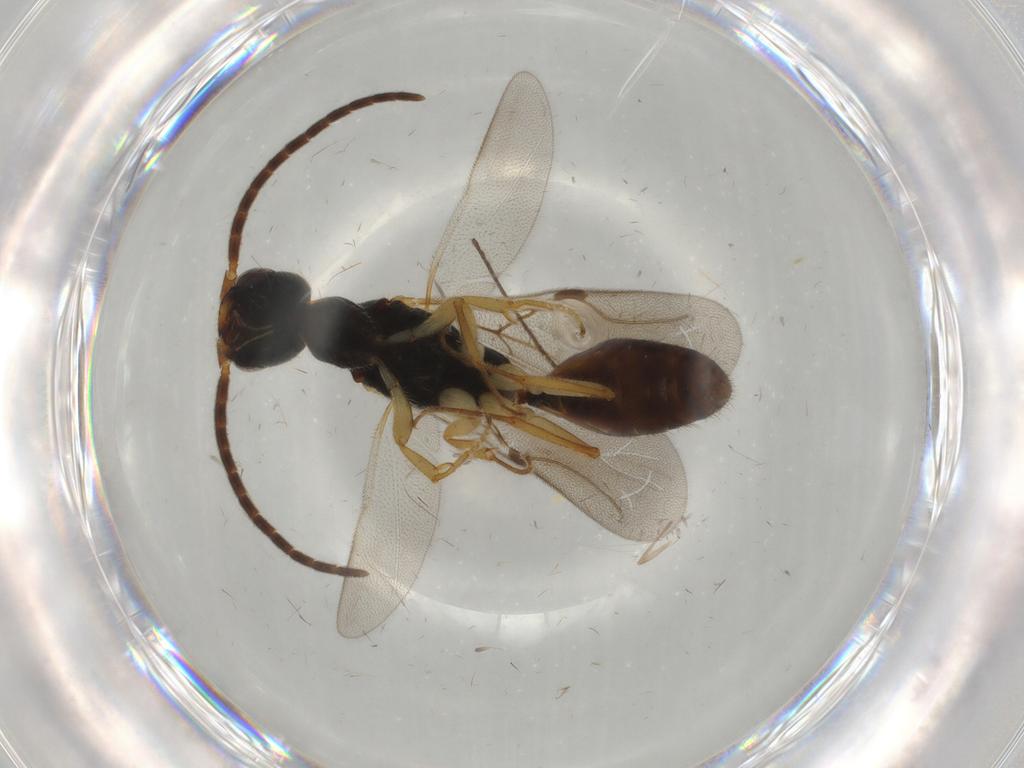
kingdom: Animalia
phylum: Arthropoda
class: Insecta
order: Hymenoptera
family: Bethylidae
